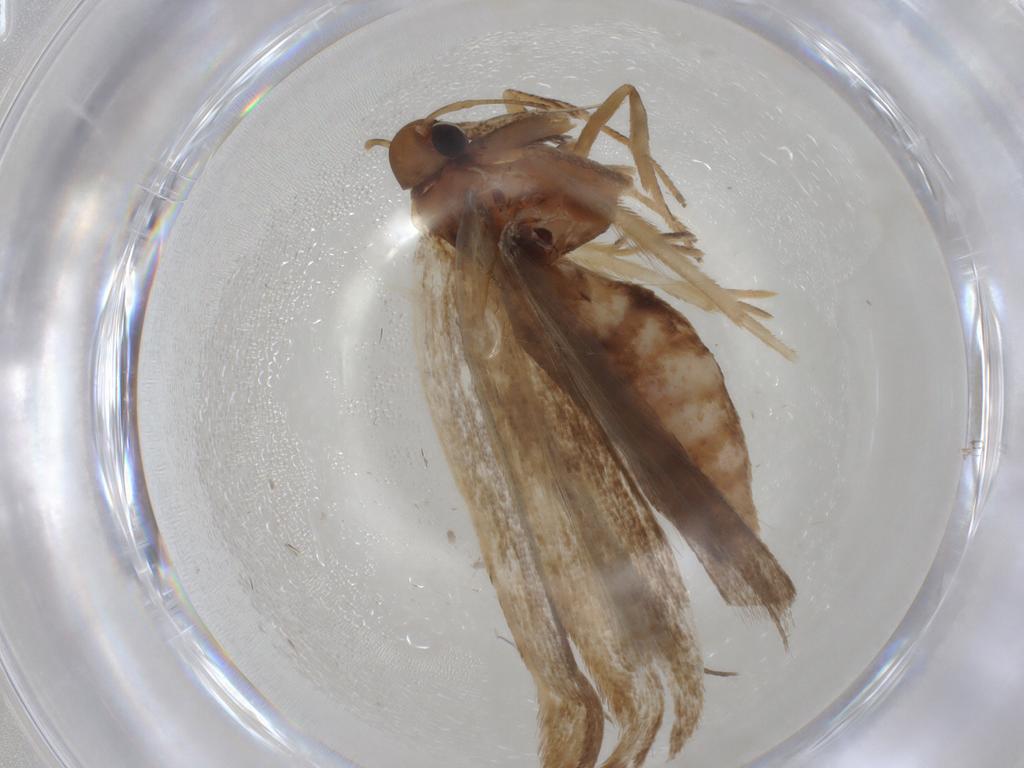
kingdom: Animalia
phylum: Arthropoda
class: Insecta
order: Lepidoptera
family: Gelechiidae
